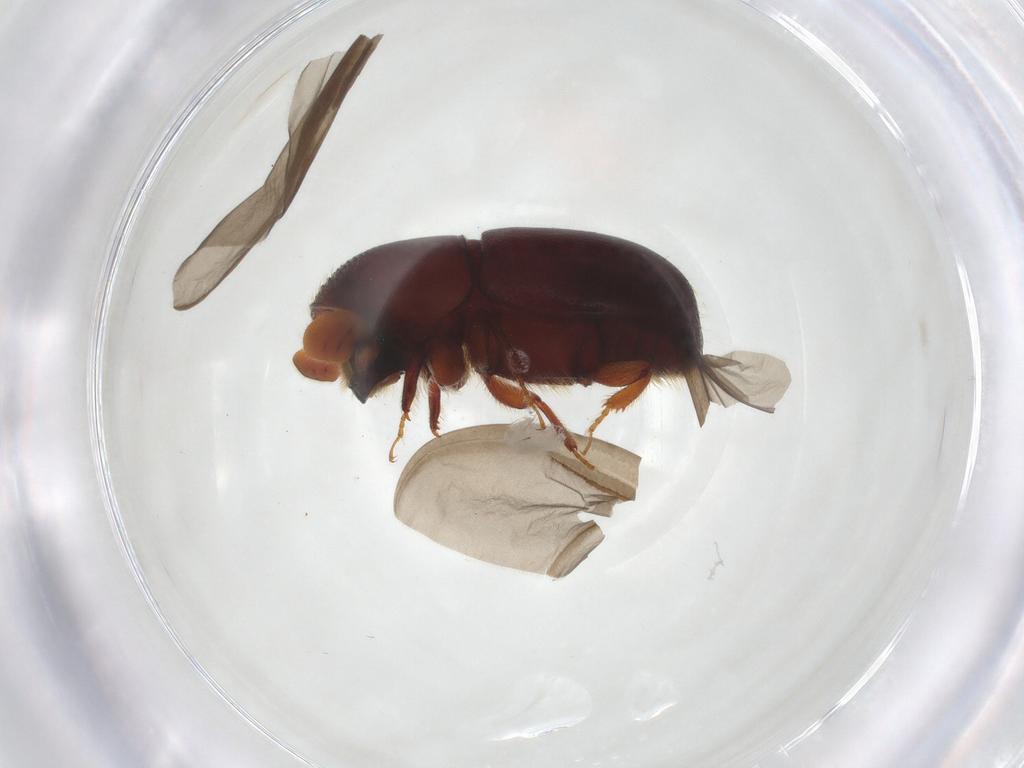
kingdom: Animalia
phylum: Arthropoda
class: Insecta
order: Coleoptera
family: Curculionidae
